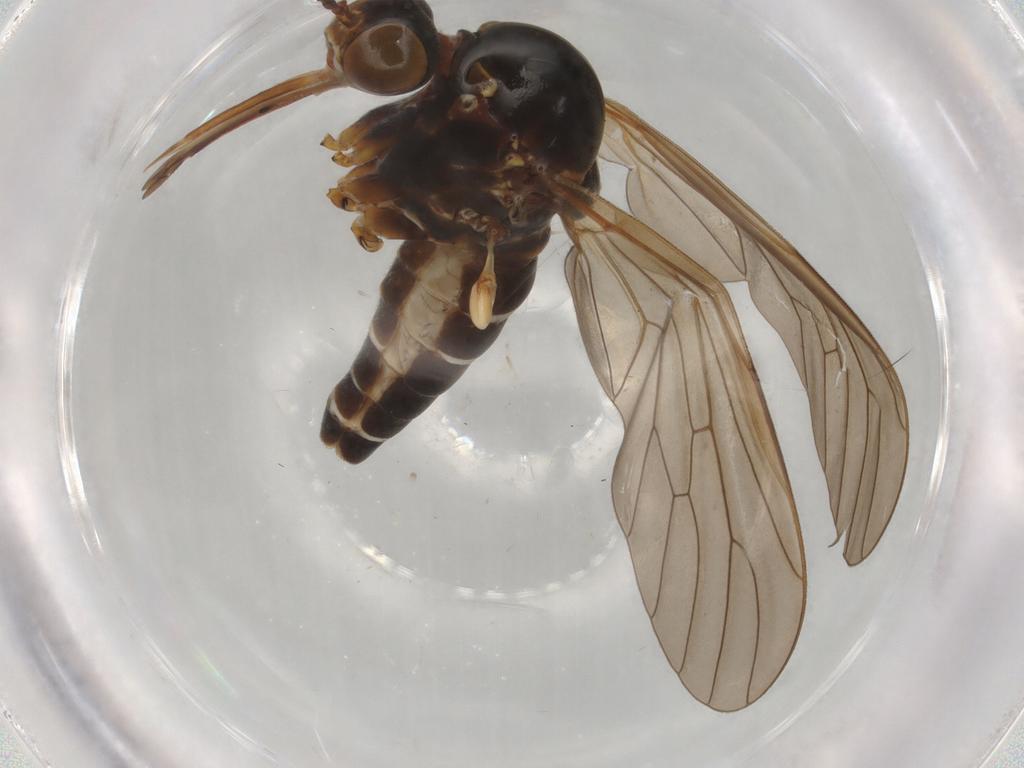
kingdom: Animalia
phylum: Arthropoda
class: Insecta
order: Diptera
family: Bombyliidae
